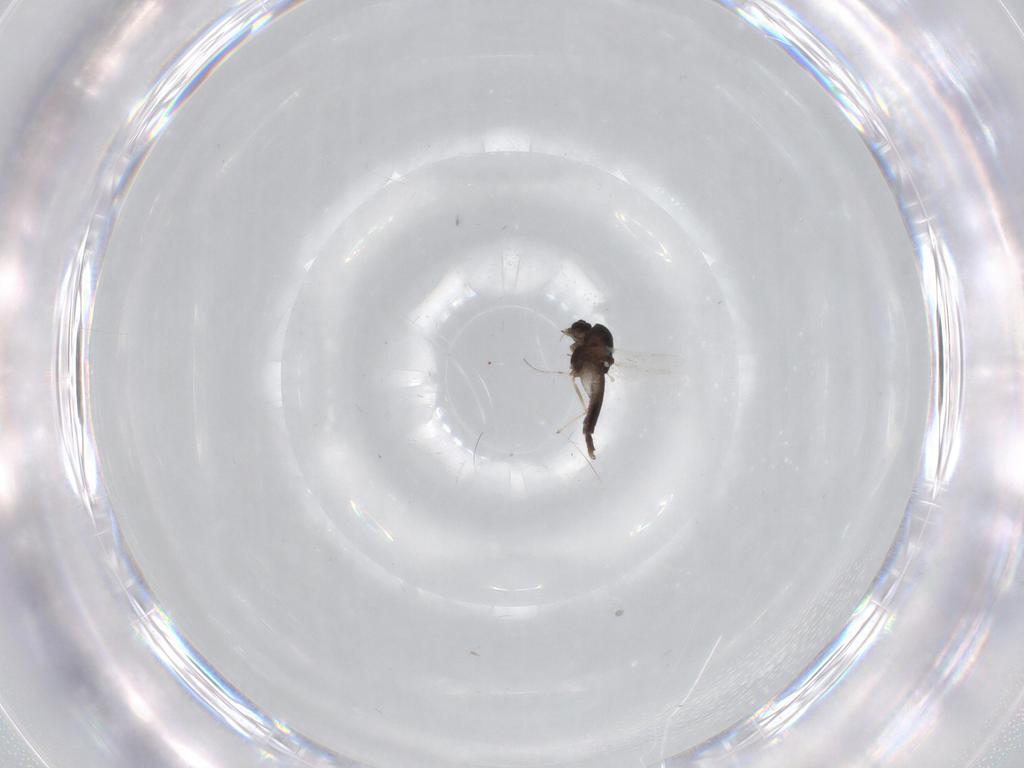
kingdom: Animalia
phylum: Arthropoda
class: Insecta
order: Diptera
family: Chironomidae
